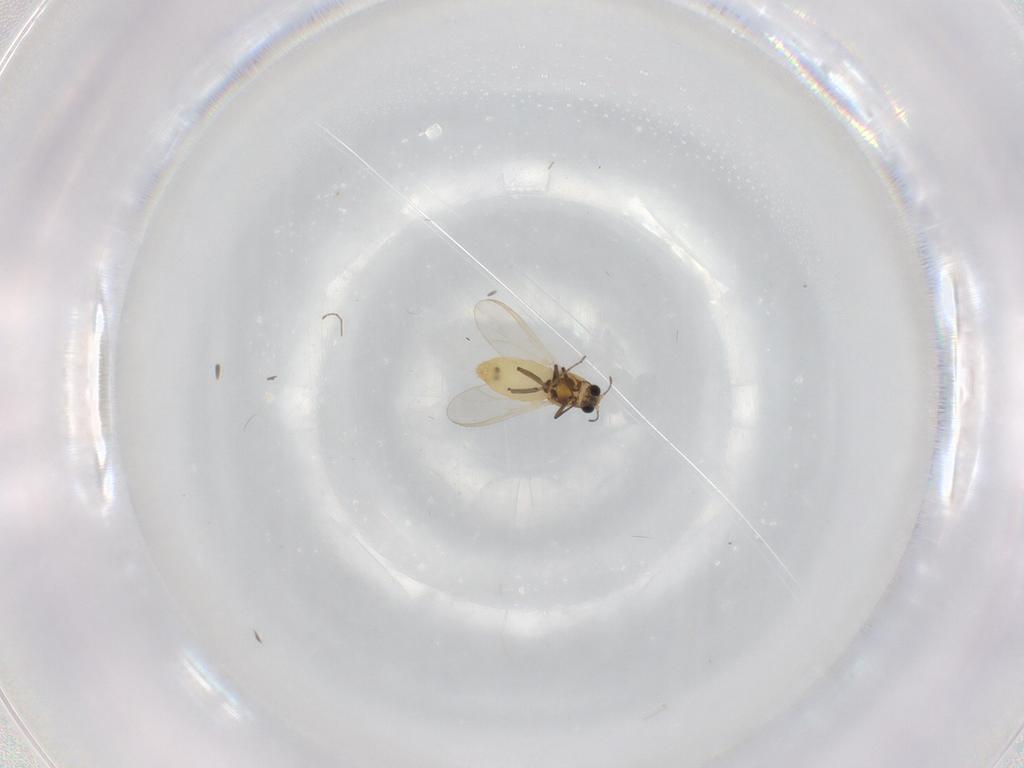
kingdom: Animalia
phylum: Arthropoda
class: Insecta
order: Diptera
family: Chironomidae
